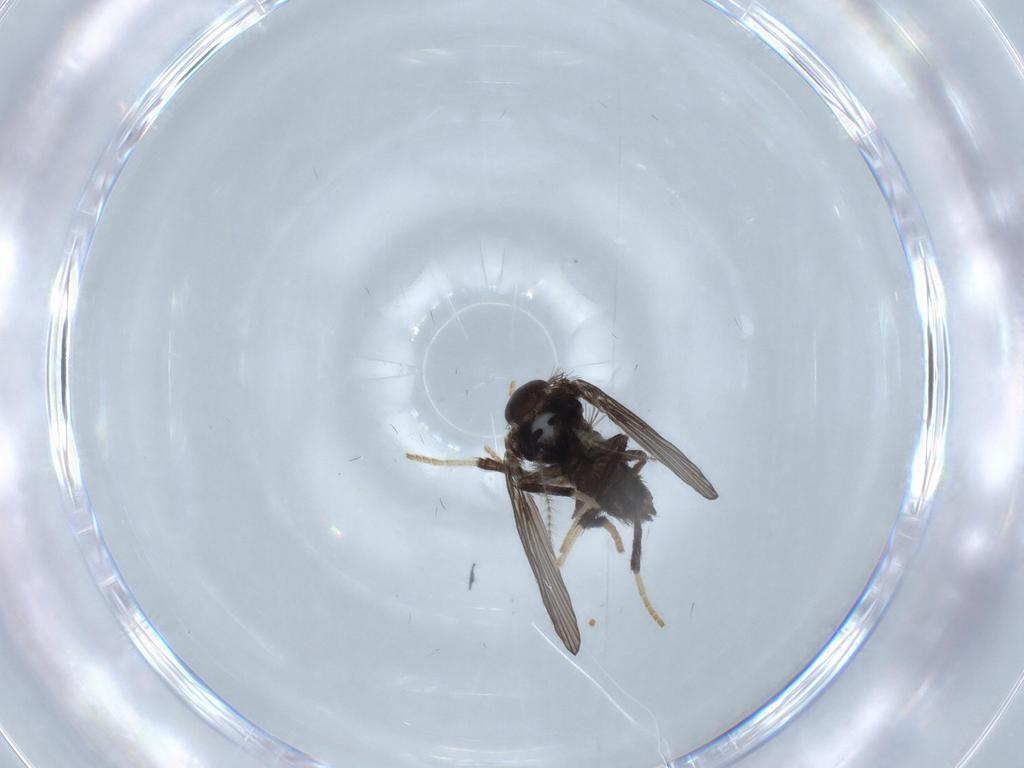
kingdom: Animalia
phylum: Arthropoda
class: Insecta
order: Diptera
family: Psychodidae
